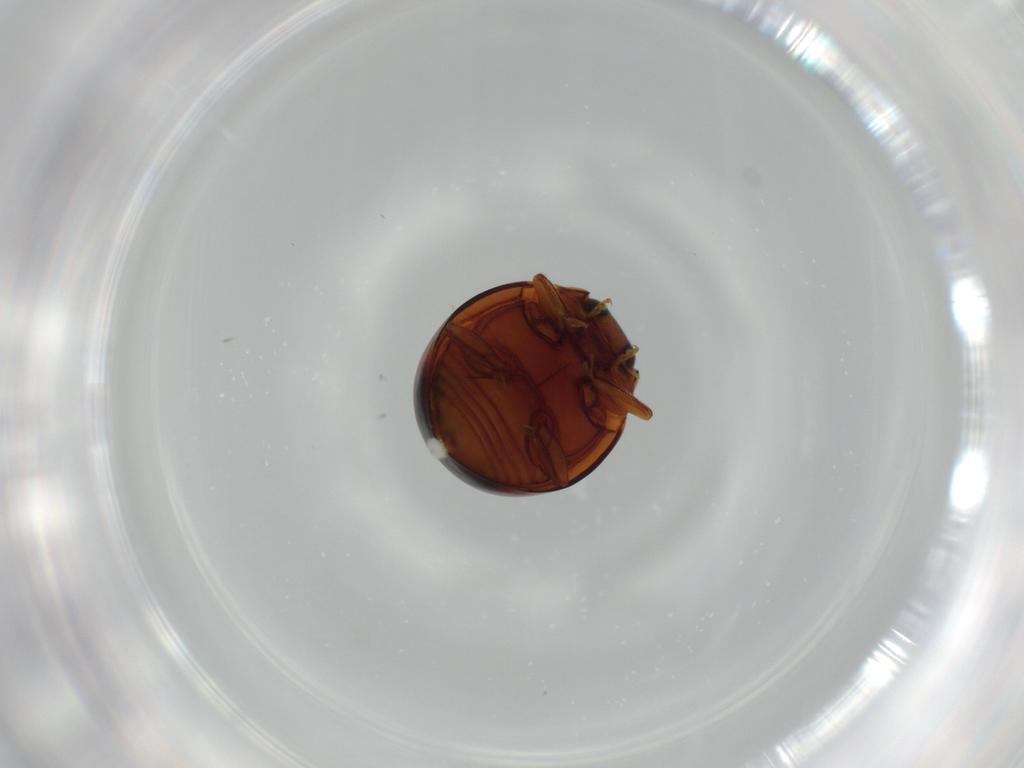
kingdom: Animalia
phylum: Arthropoda
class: Insecta
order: Coleoptera
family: Coccinellidae
